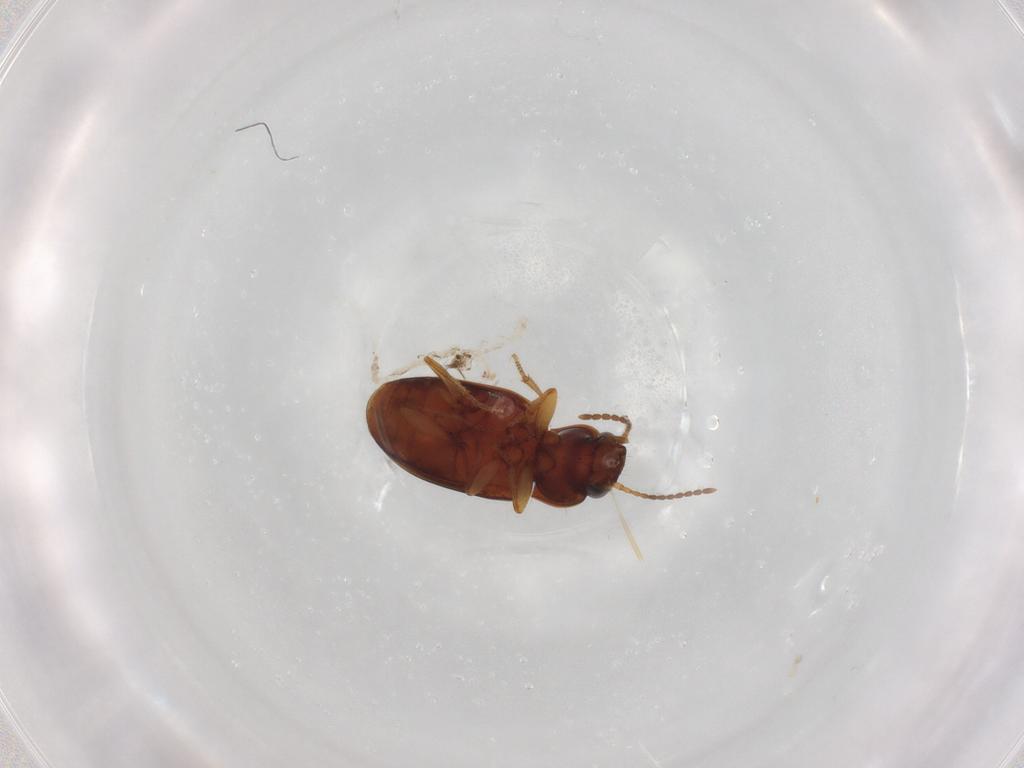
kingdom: Animalia
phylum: Arthropoda
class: Insecta
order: Coleoptera
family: Carabidae
